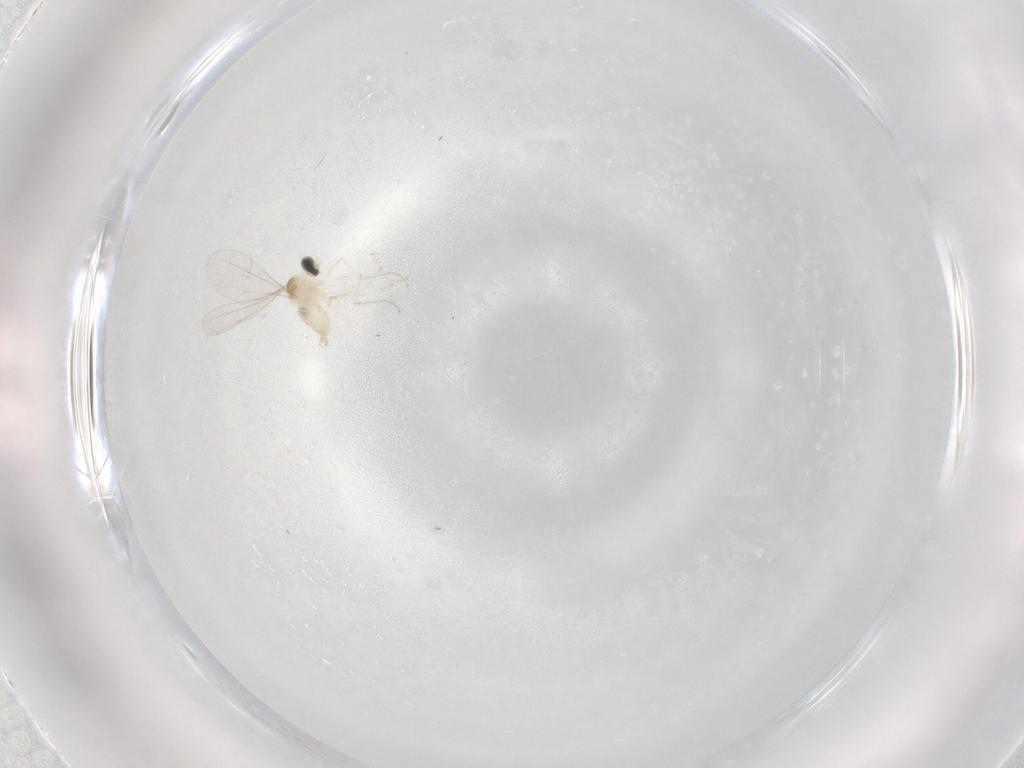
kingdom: Animalia
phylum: Arthropoda
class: Insecta
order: Diptera
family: Cecidomyiidae
